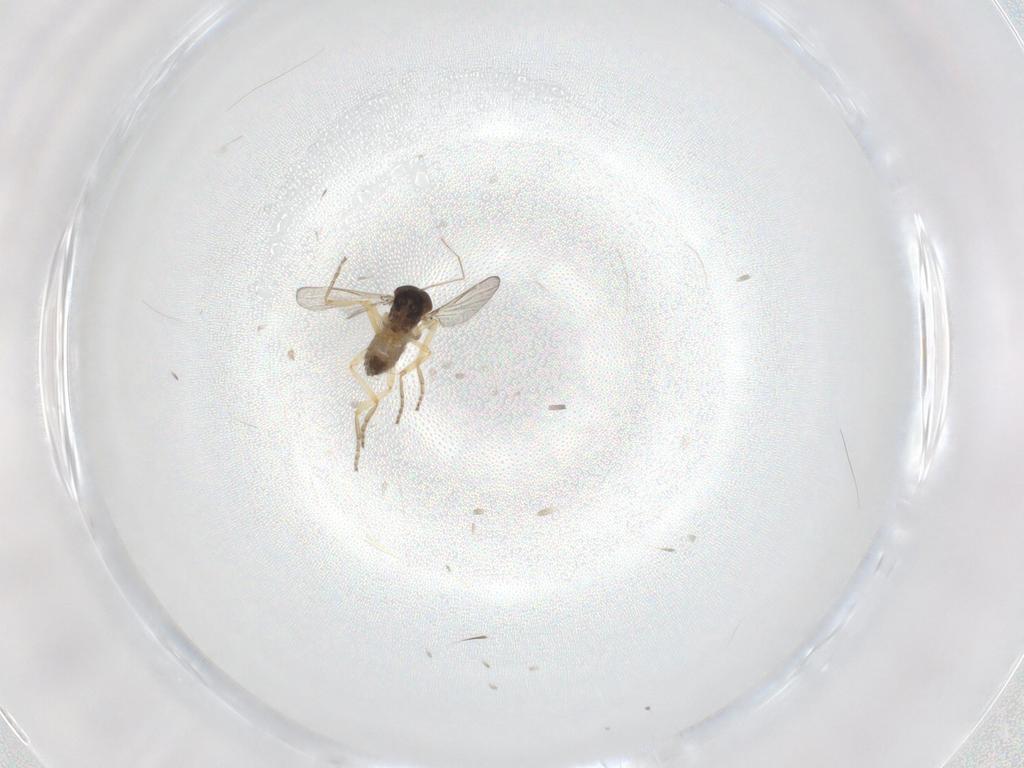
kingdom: Animalia
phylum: Arthropoda
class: Insecta
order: Diptera
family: Ceratopogonidae
